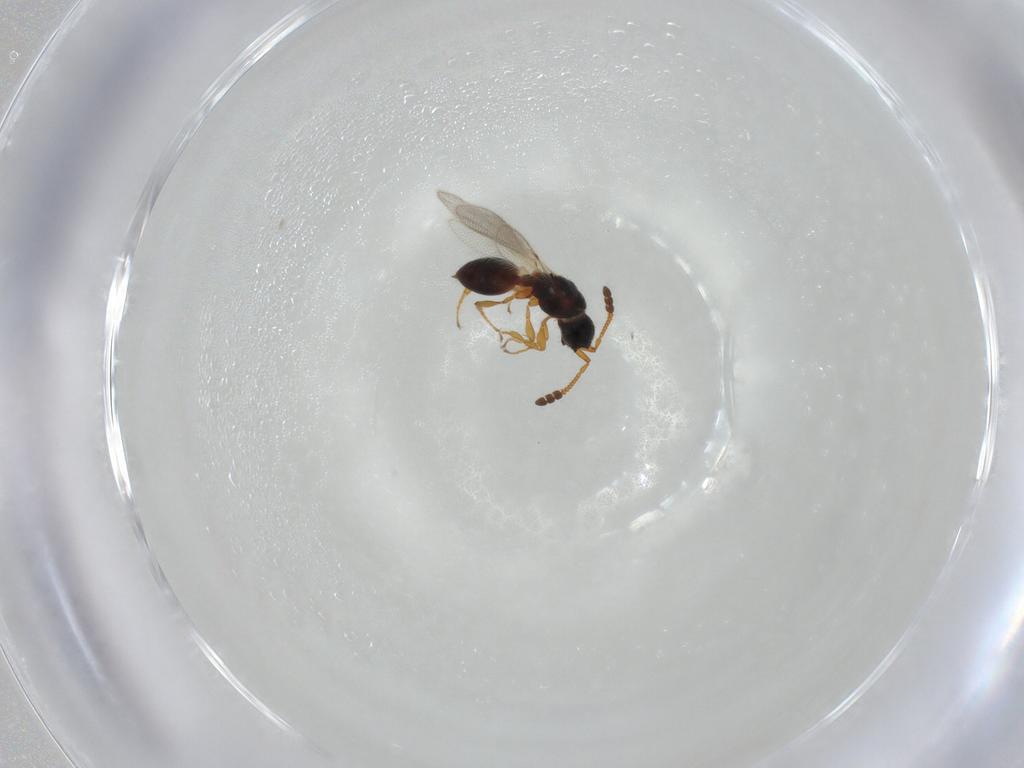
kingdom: Animalia
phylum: Arthropoda
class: Insecta
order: Hymenoptera
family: Diapriidae
